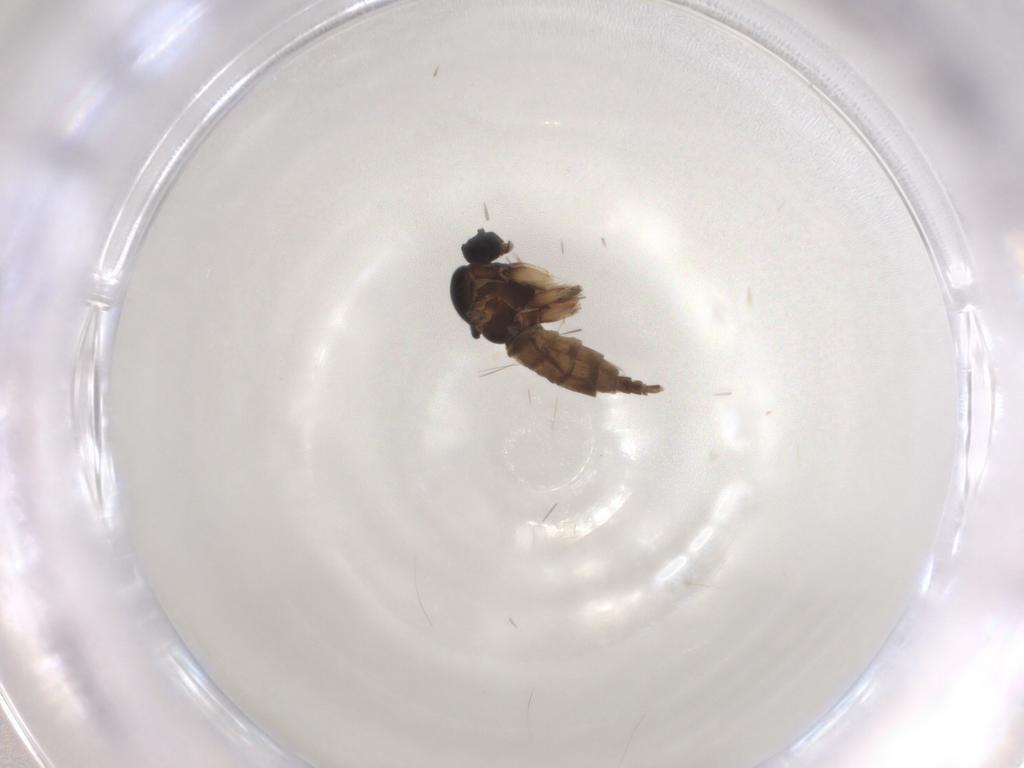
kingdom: Animalia
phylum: Arthropoda
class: Insecta
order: Diptera
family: Sciaridae
